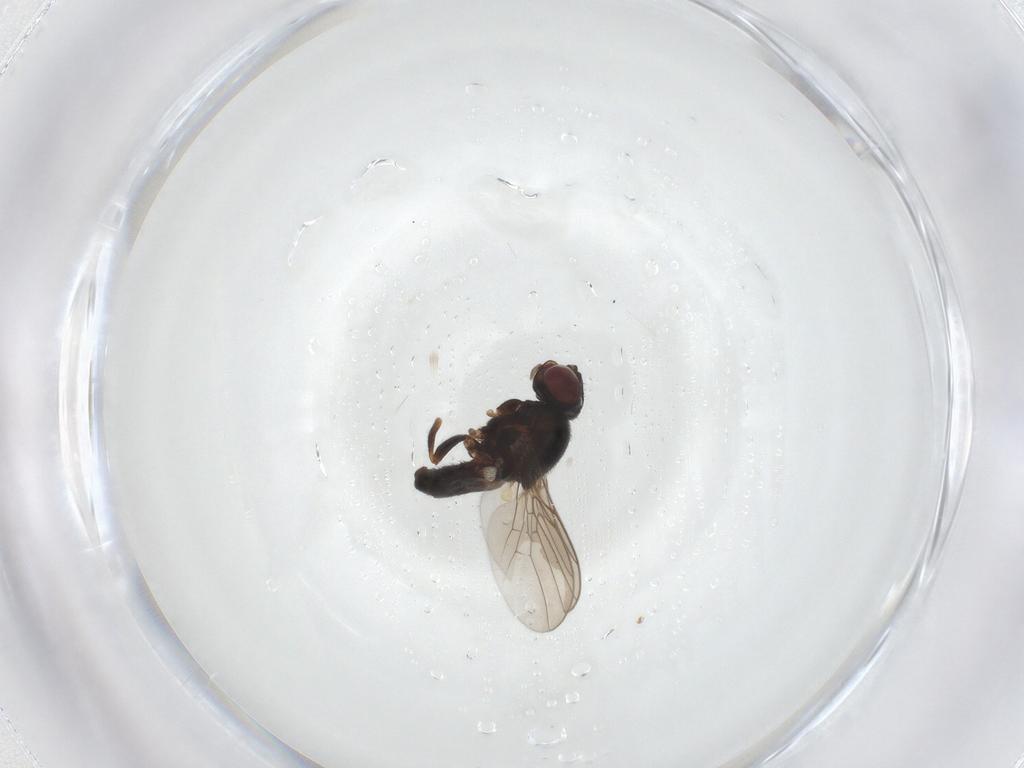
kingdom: Animalia
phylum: Arthropoda
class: Insecta
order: Diptera
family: Chloropidae
